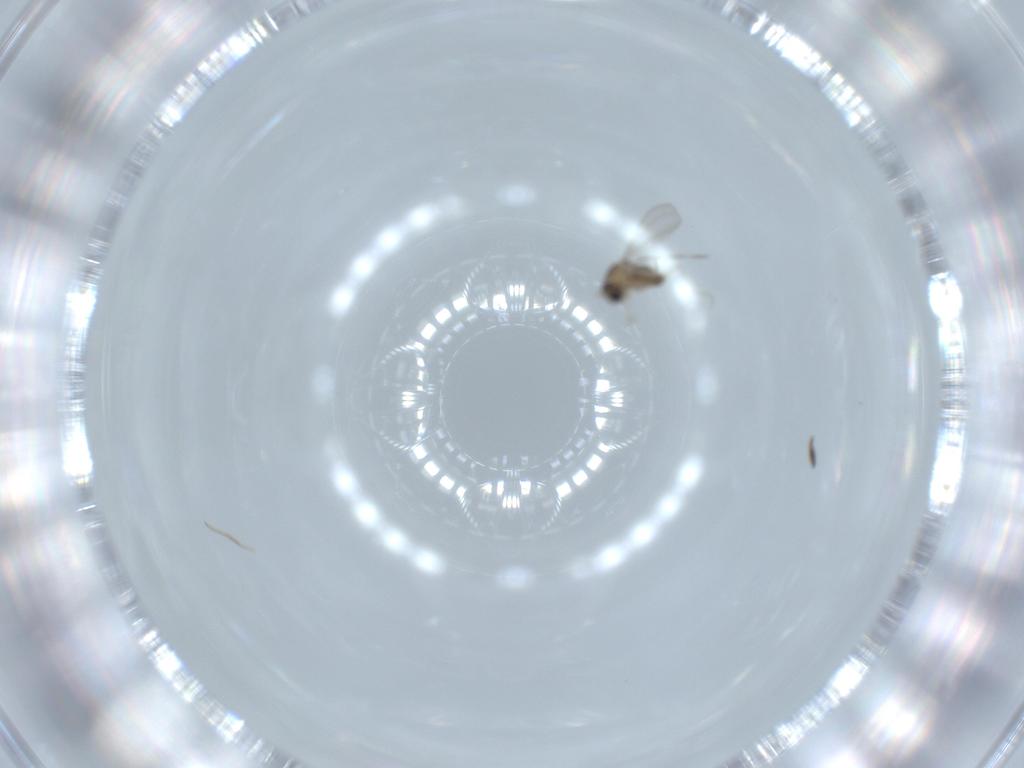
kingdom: Animalia
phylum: Arthropoda
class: Insecta
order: Diptera
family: Cecidomyiidae
